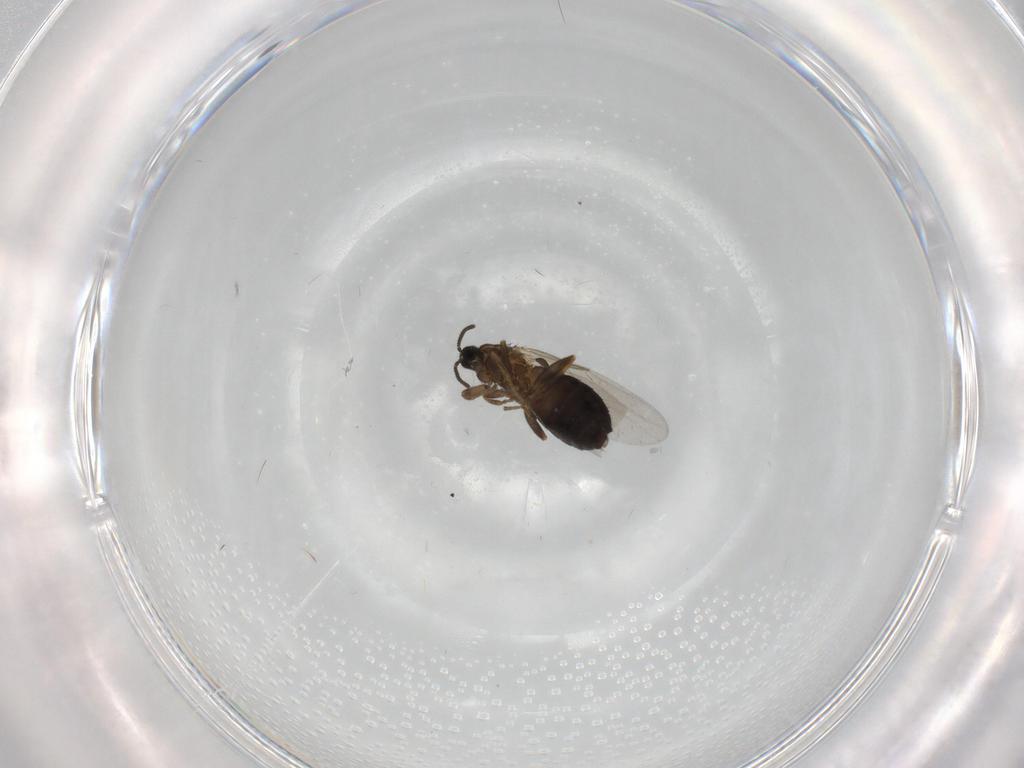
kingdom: Animalia
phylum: Arthropoda
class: Insecta
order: Diptera
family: Scatopsidae
